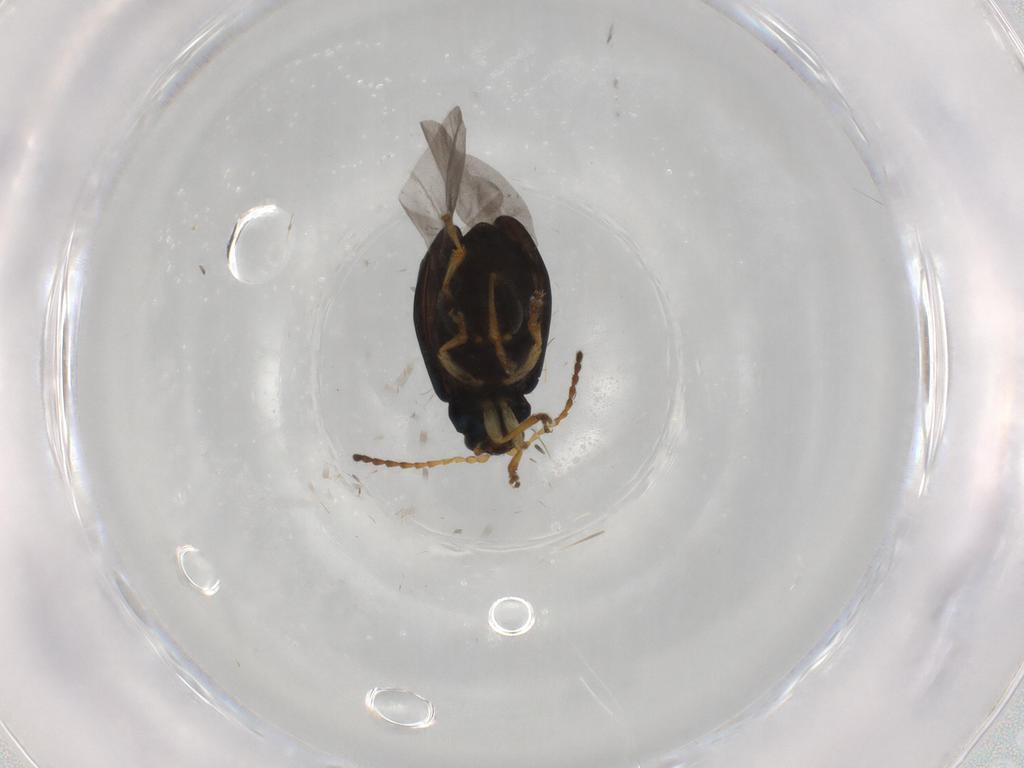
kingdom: Animalia
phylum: Arthropoda
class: Insecta
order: Coleoptera
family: Chrysomelidae
